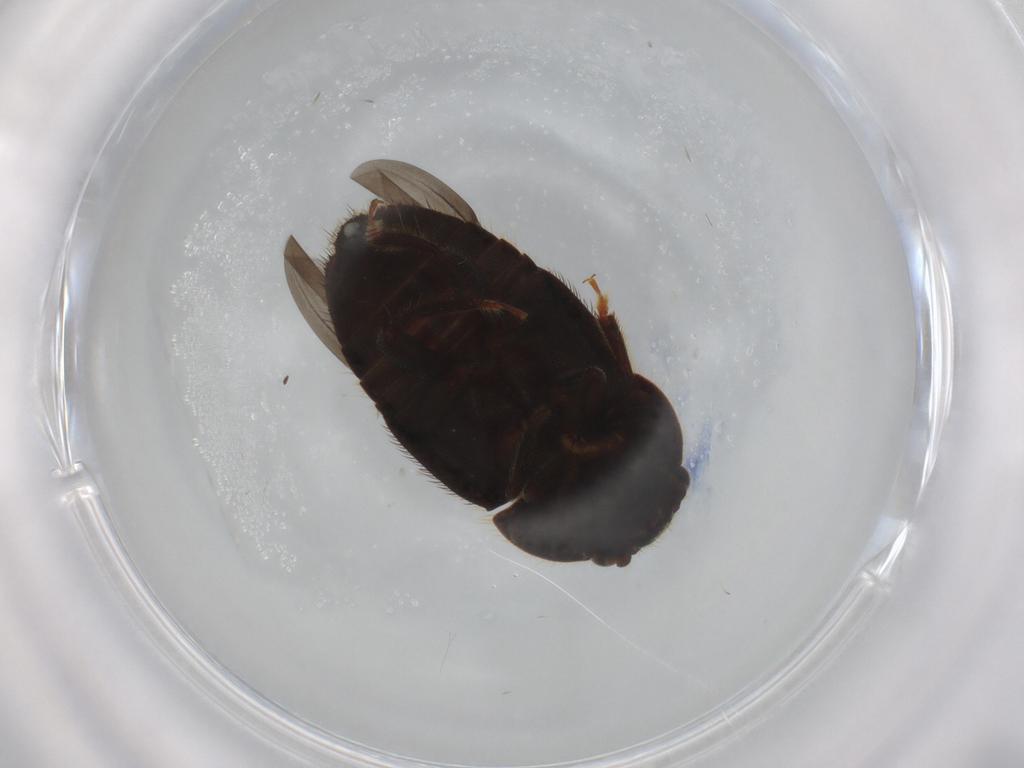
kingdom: Animalia
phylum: Arthropoda
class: Insecta
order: Coleoptera
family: Nitidulidae
